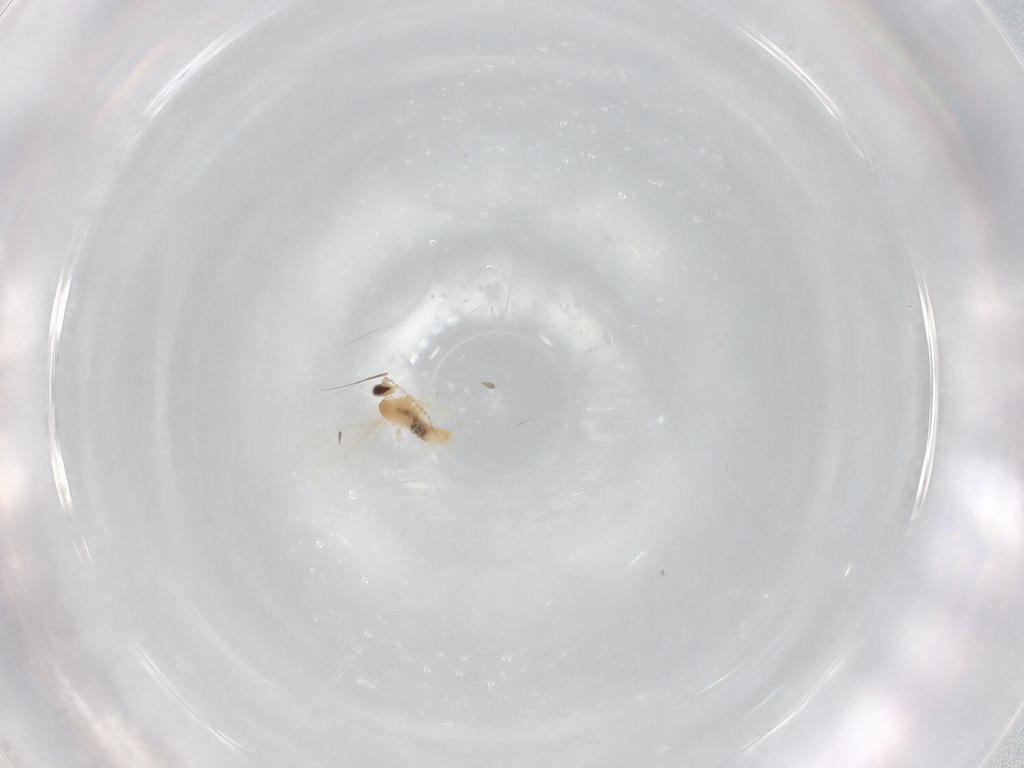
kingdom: Animalia
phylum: Arthropoda
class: Insecta
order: Diptera
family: Cecidomyiidae
